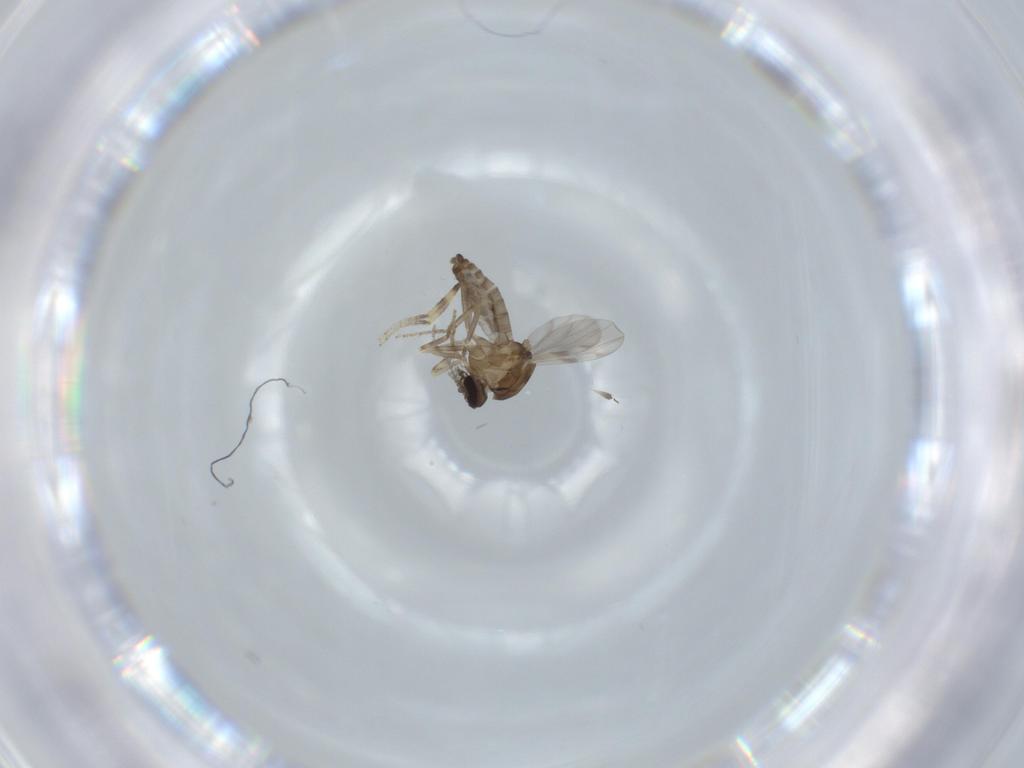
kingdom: Animalia
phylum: Arthropoda
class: Insecta
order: Diptera
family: Ceratopogonidae
